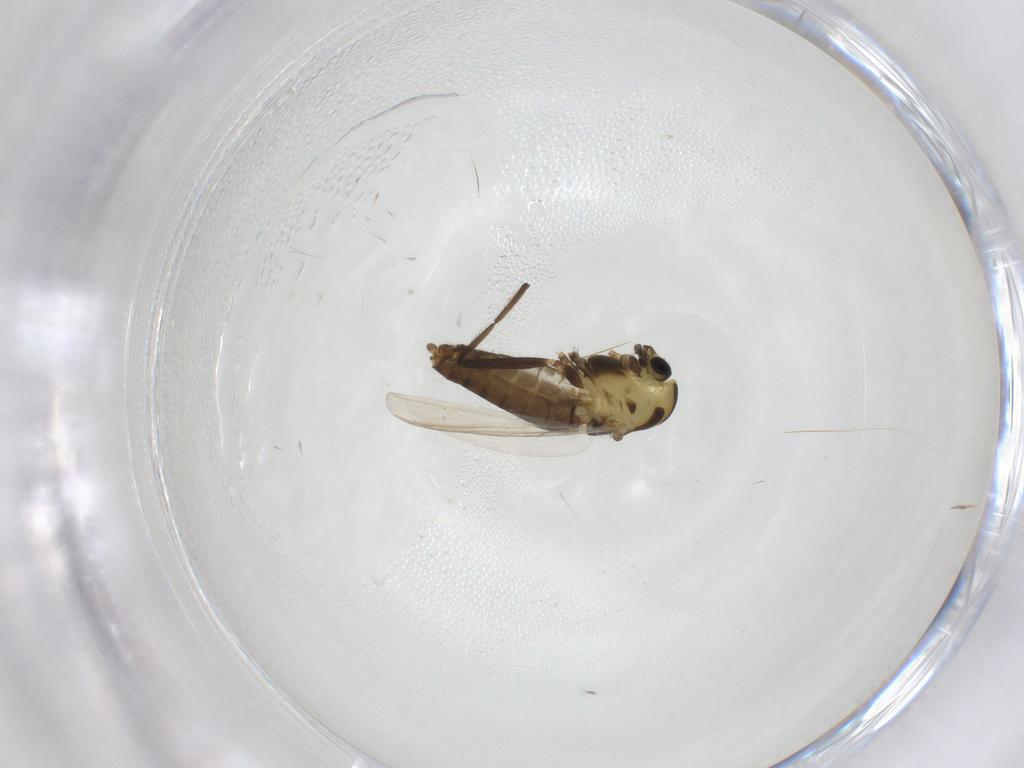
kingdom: Animalia
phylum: Arthropoda
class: Insecta
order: Diptera
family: Chironomidae
